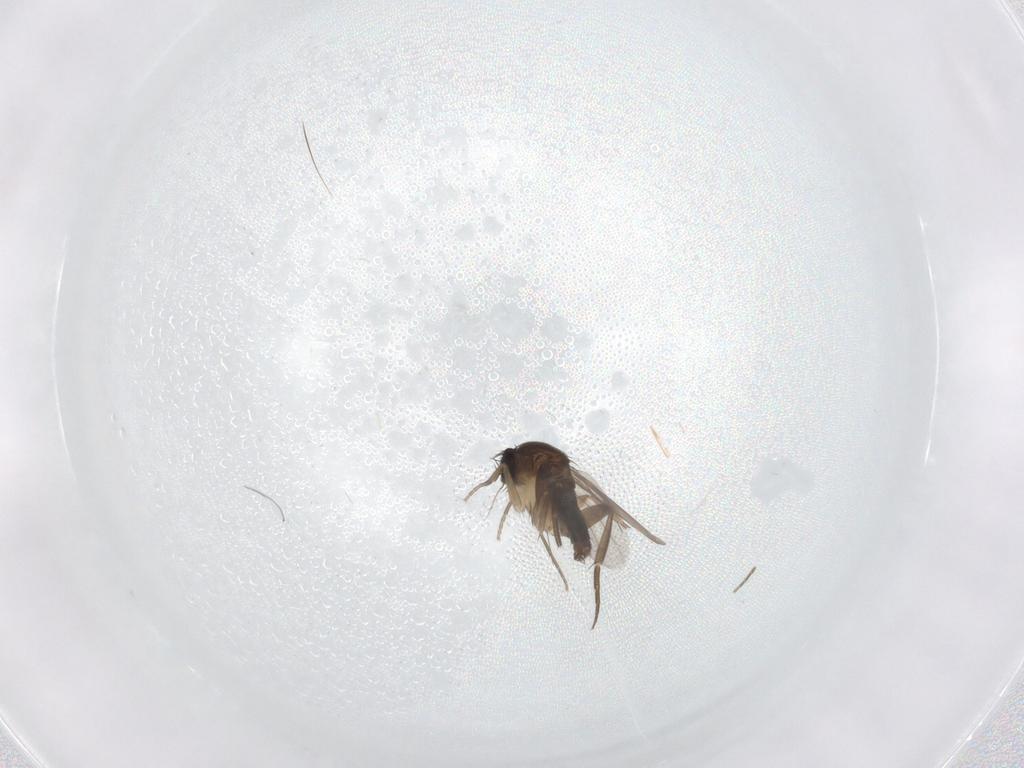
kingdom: Animalia
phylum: Arthropoda
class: Insecta
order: Diptera
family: Phoridae
